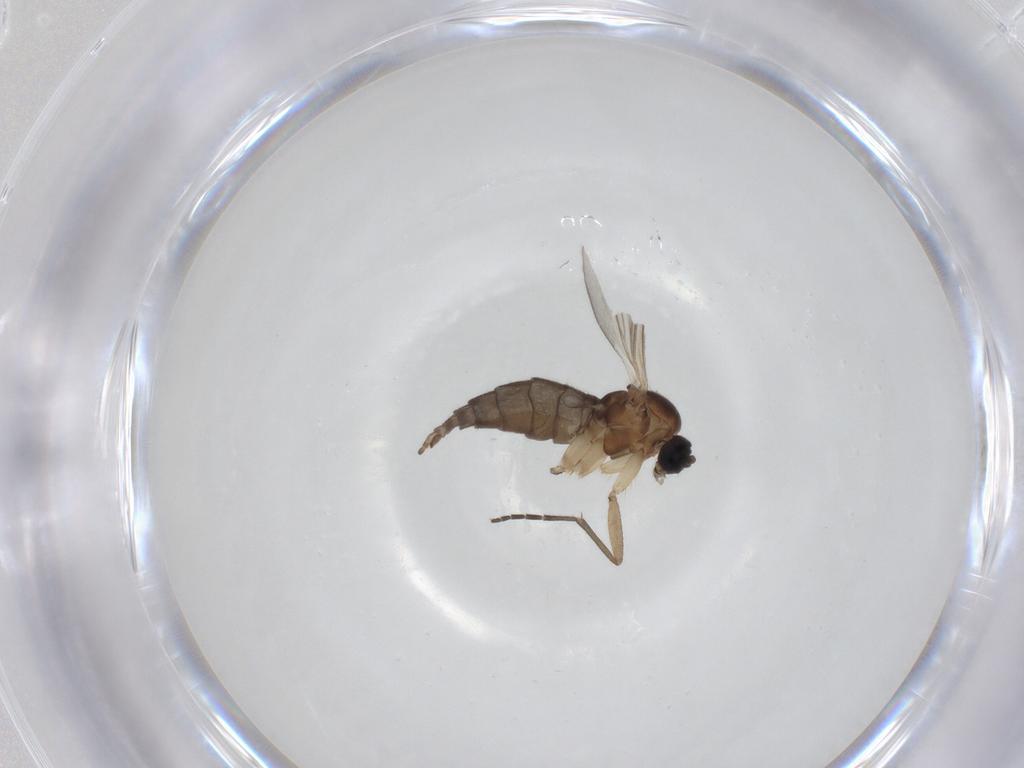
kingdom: Animalia
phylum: Arthropoda
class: Insecta
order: Diptera
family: Sciaridae
